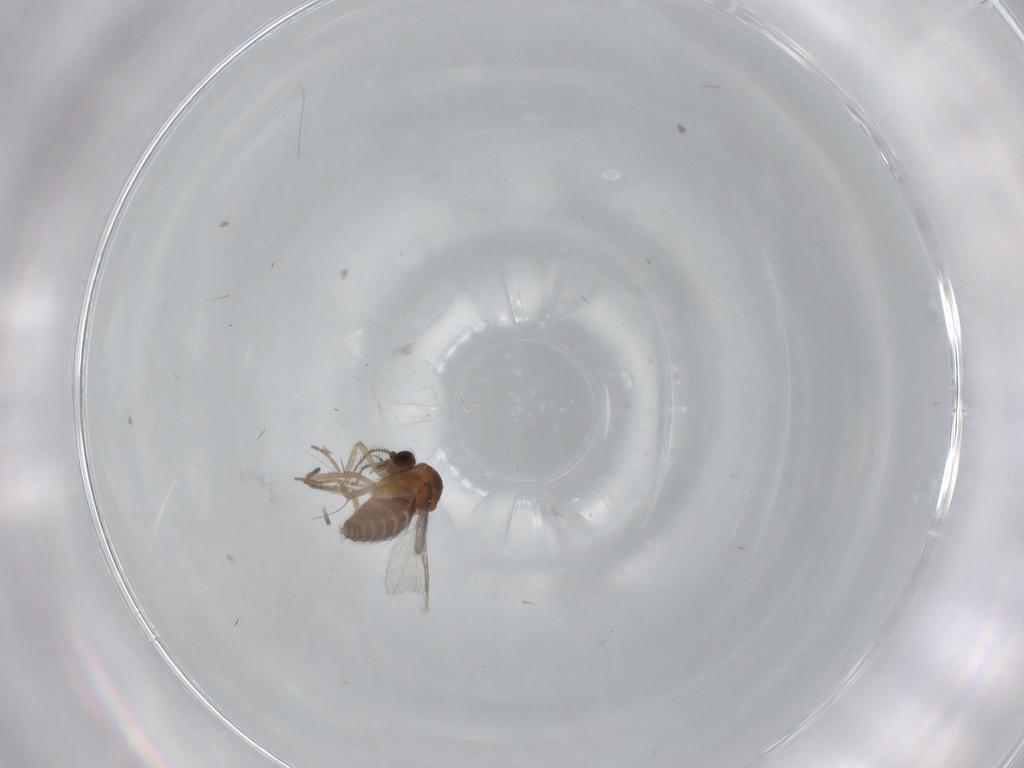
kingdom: Animalia
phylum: Arthropoda
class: Insecta
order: Diptera
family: Ceratopogonidae
